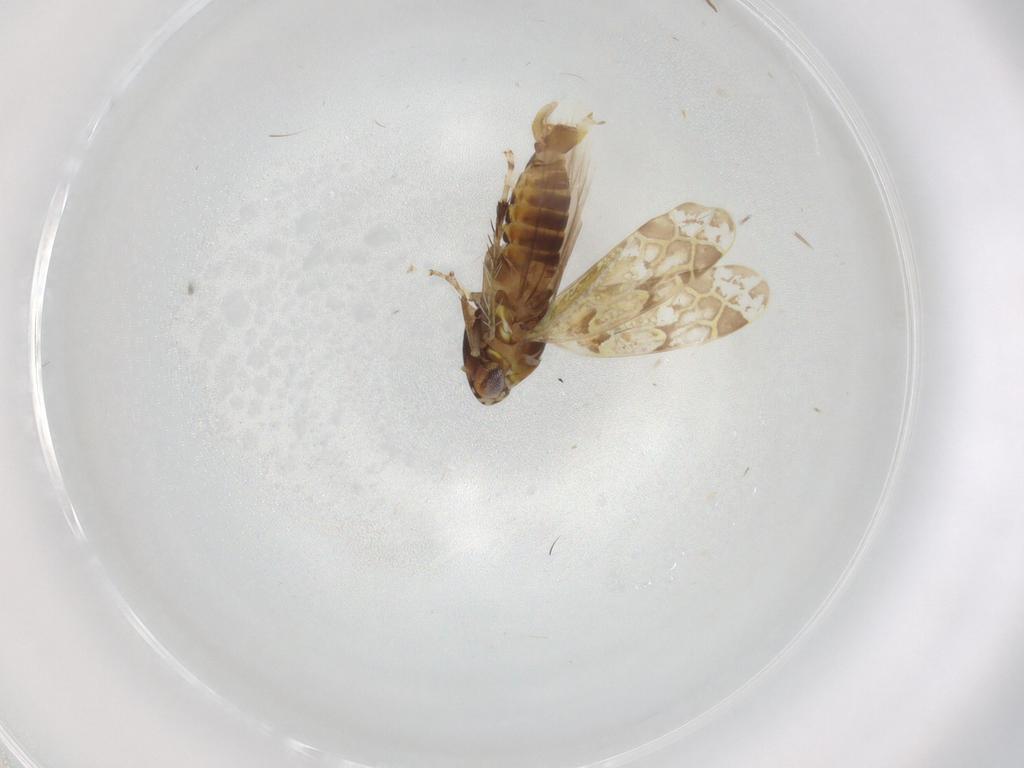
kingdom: Animalia
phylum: Arthropoda
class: Insecta
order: Hemiptera
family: Cicadellidae
